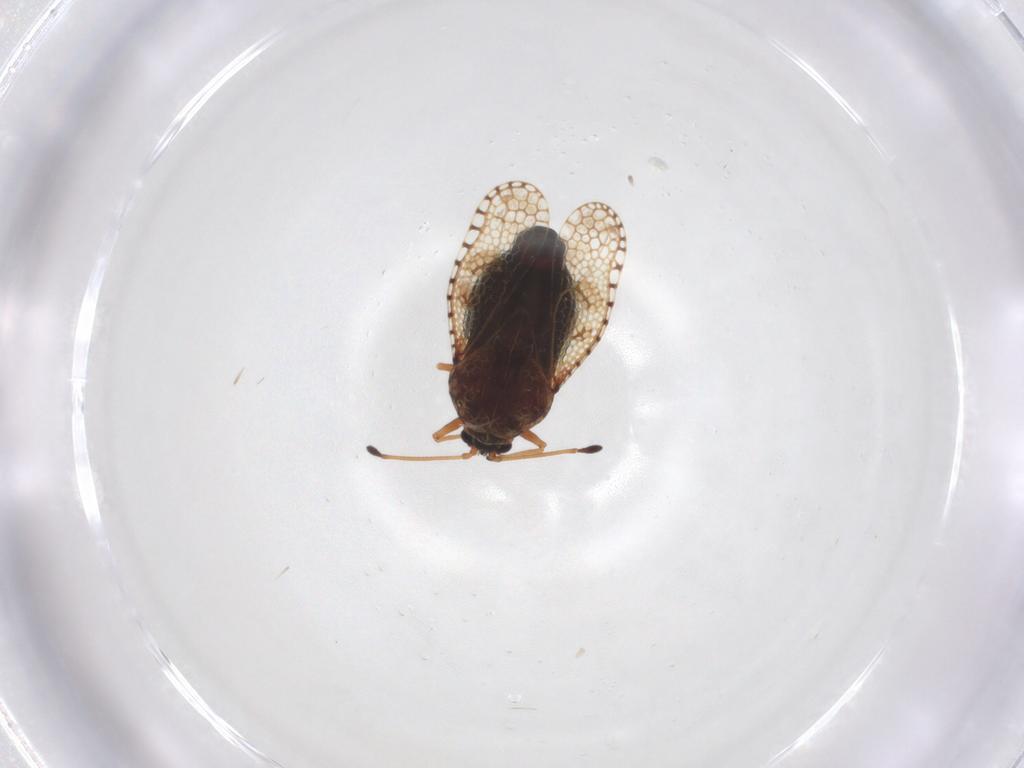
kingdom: Animalia
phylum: Arthropoda
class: Insecta
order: Hemiptera
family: Tingidae
